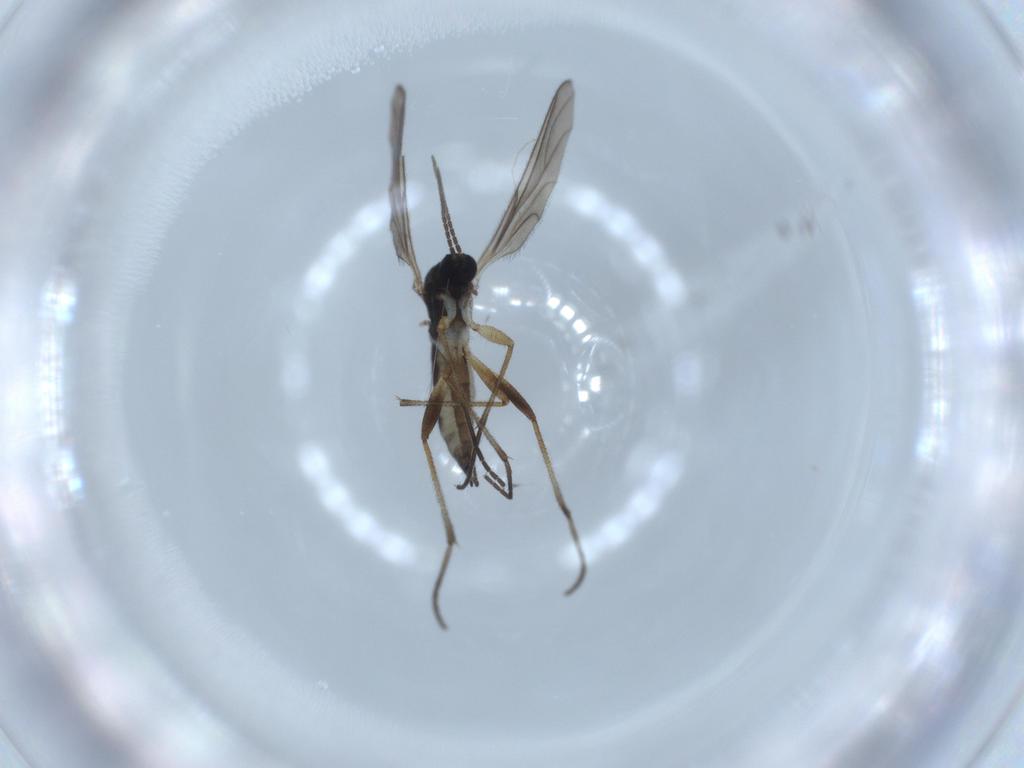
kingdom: Animalia
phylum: Arthropoda
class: Insecta
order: Diptera
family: Sciaridae
